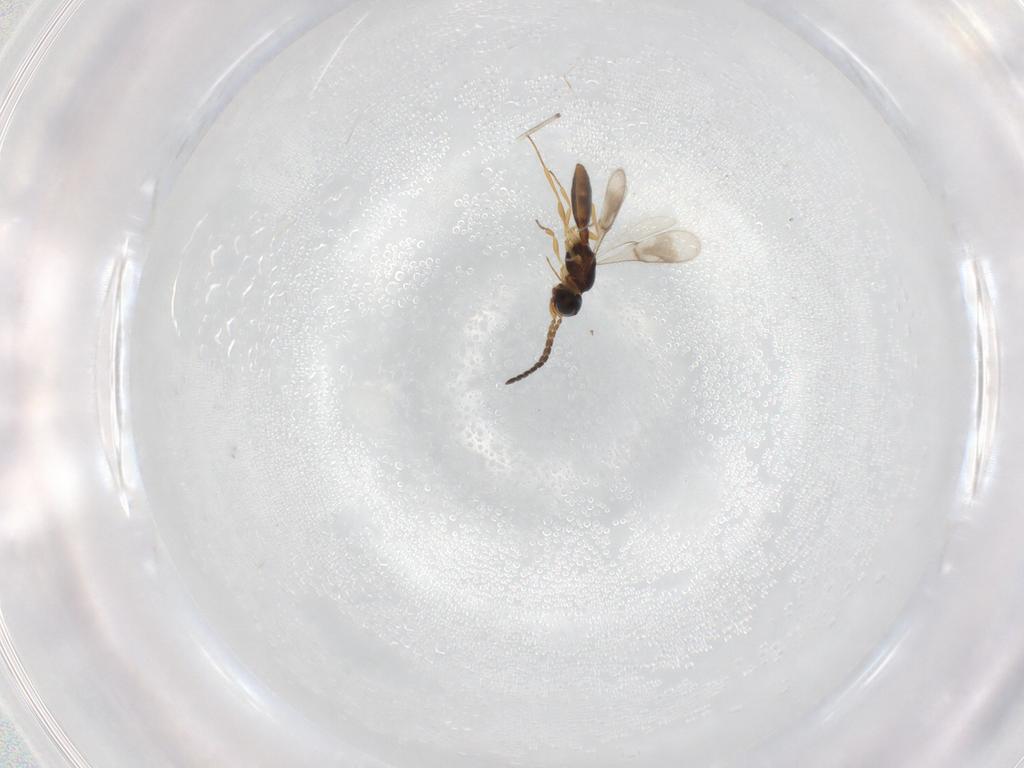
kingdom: Animalia
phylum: Arthropoda
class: Insecta
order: Hymenoptera
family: Scelionidae
